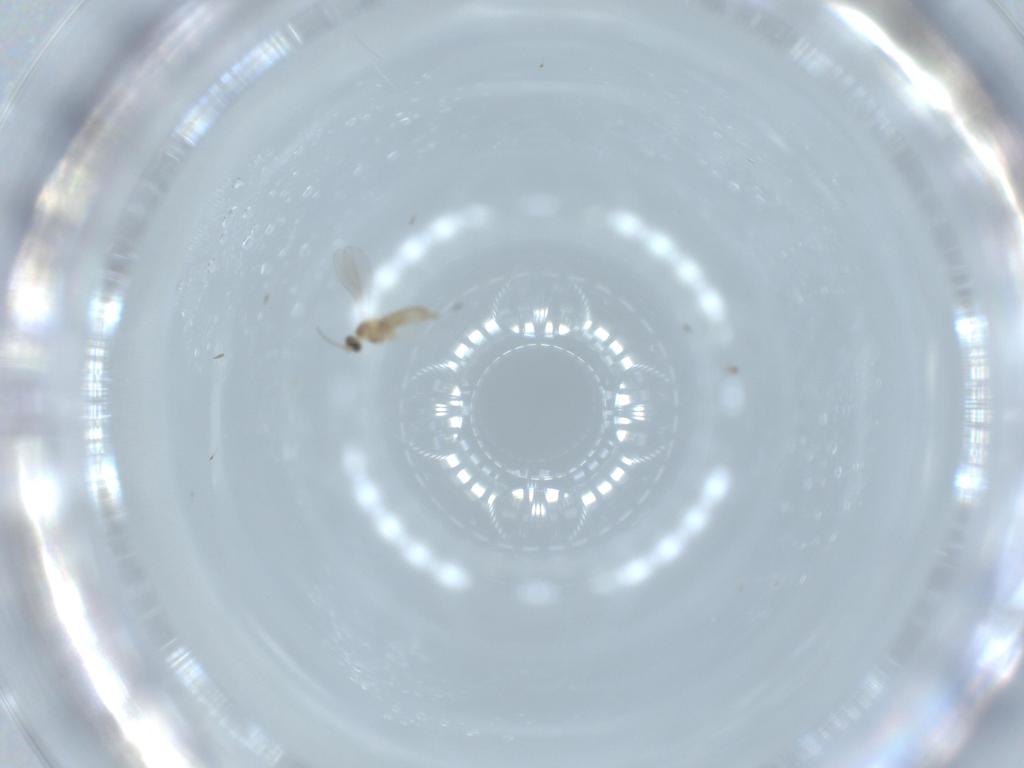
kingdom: Animalia
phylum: Arthropoda
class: Insecta
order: Diptera
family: Cecidomyiidae
